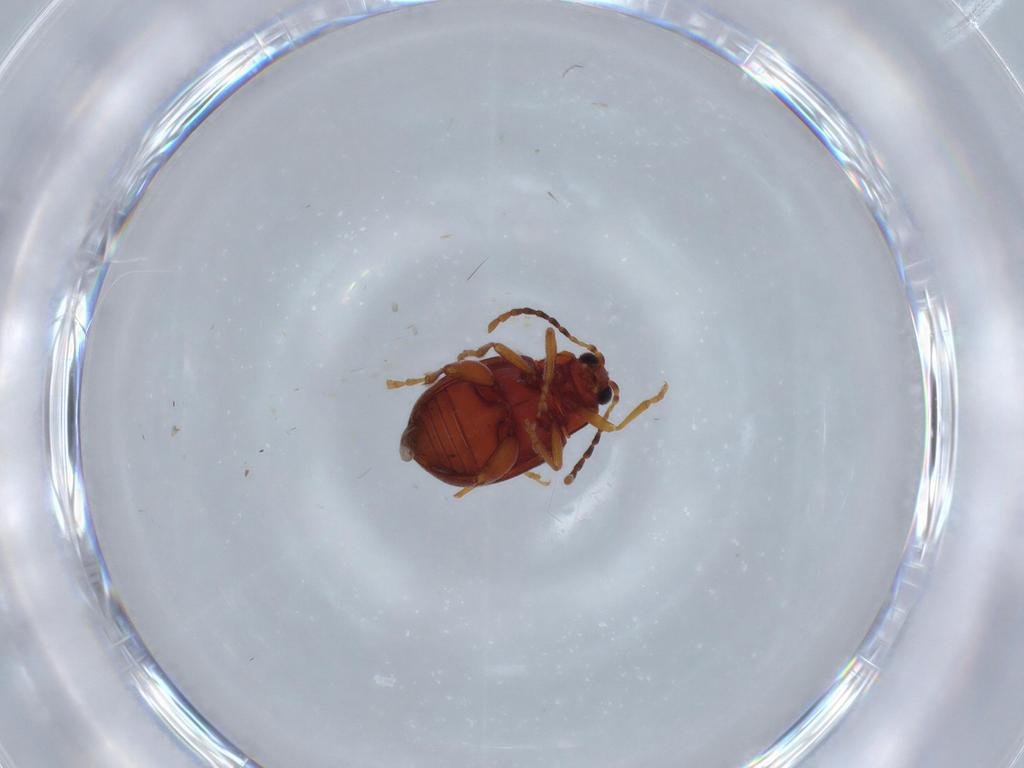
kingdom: Animalia
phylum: Arthropoda
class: Insecta
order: Coleoptera
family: Chrysomelidae
